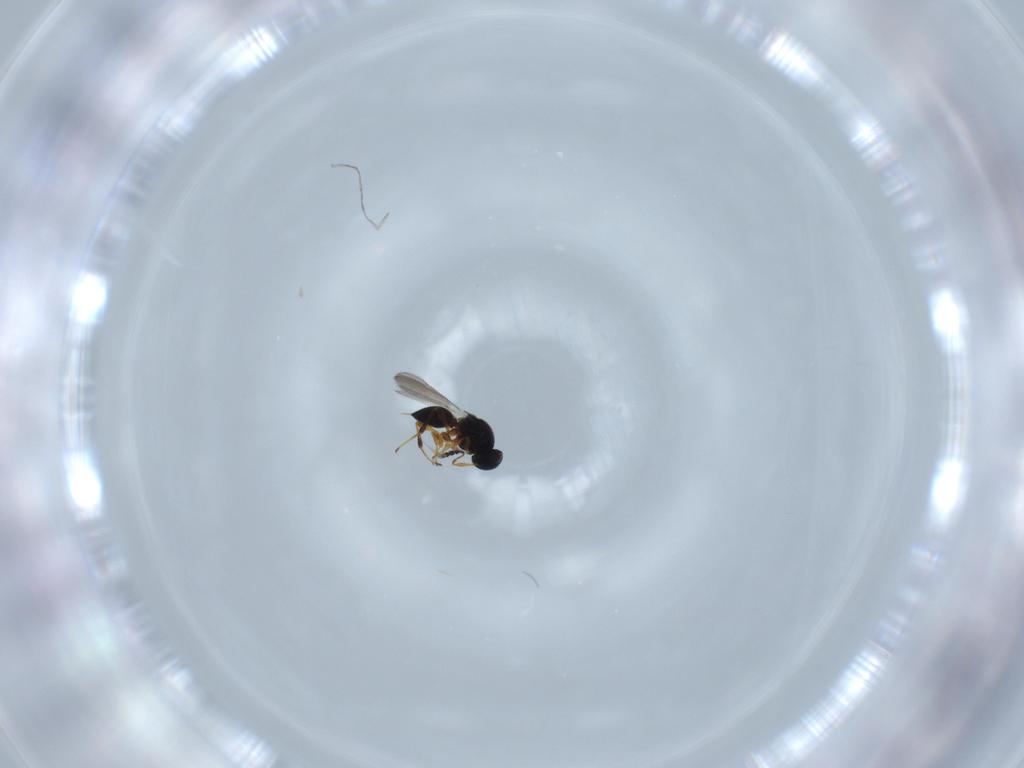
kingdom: Animalia
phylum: Arthropoda
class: Insecta
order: Hymenoptera
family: Platygastridae
